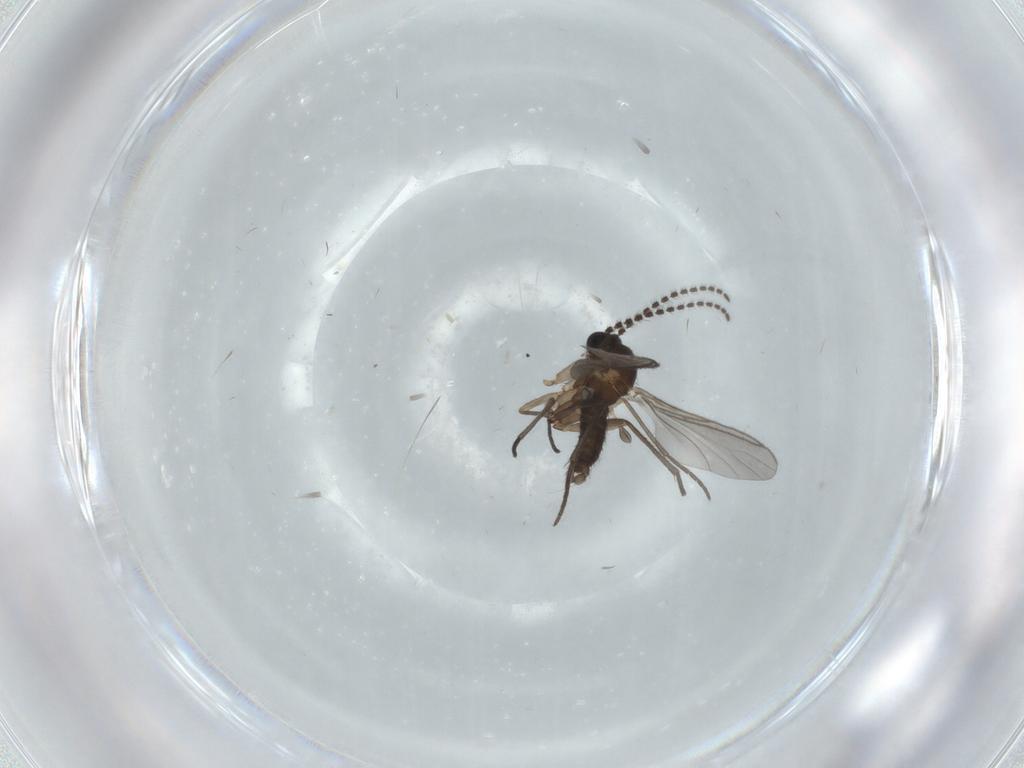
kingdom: Animalia
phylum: Arthropoda
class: Insecta
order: Diptera
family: Sciaridae
